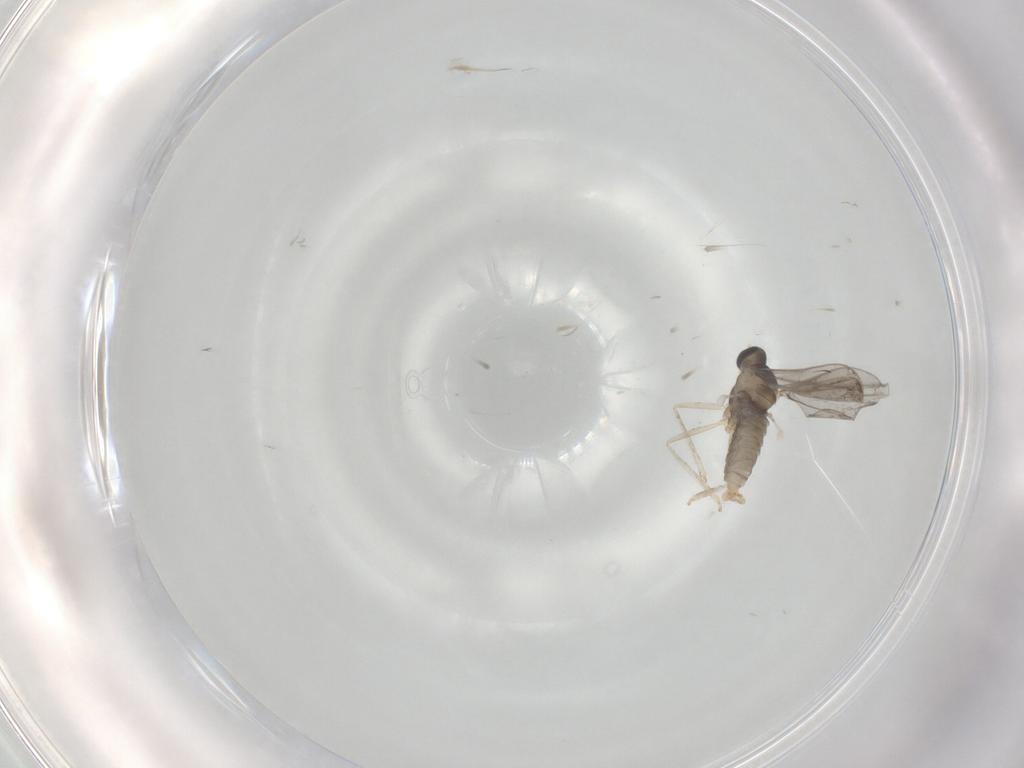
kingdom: Animalia
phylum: Arthropoda
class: Insecta
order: Diptera
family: Cecidomyiidae
